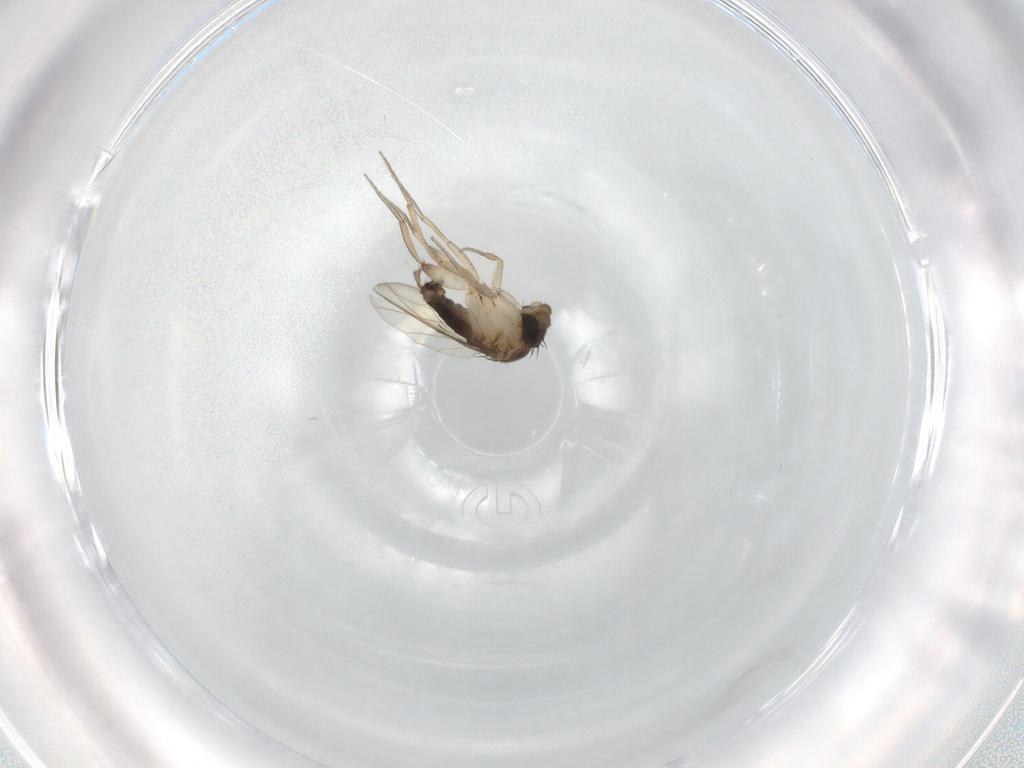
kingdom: Animalia
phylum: Arthropoda
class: Insecta
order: Diptera
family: Phoridae
